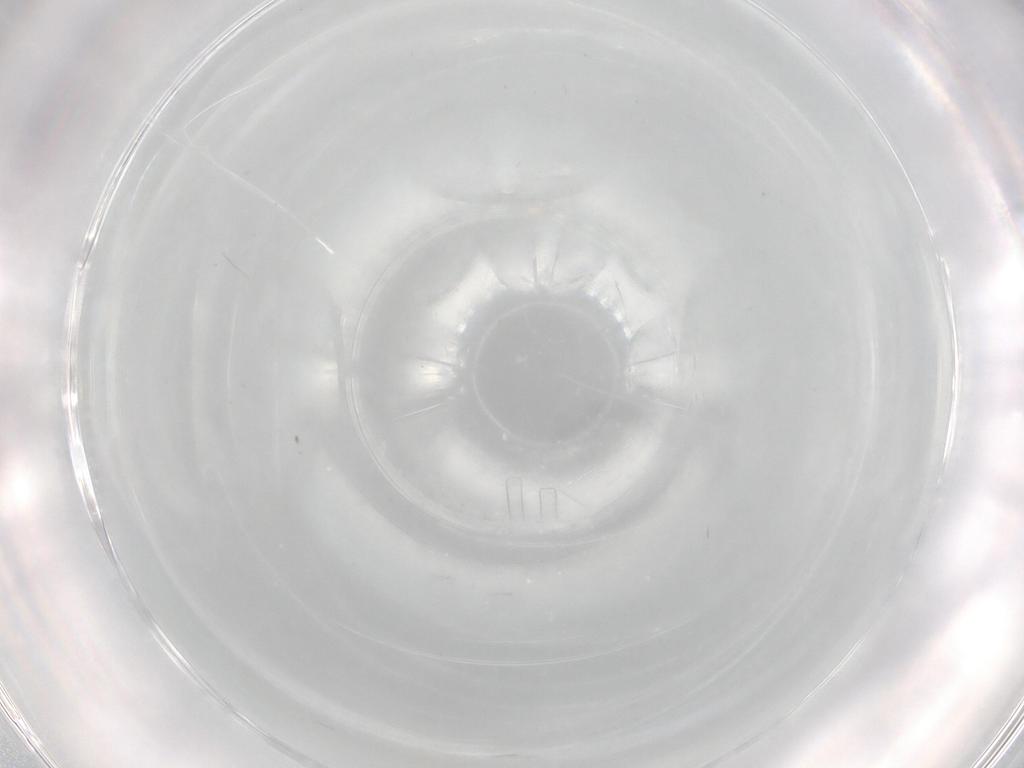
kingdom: Animalia
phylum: Arthropoda
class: Insecta
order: Diptera
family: Cecidomyiidae
